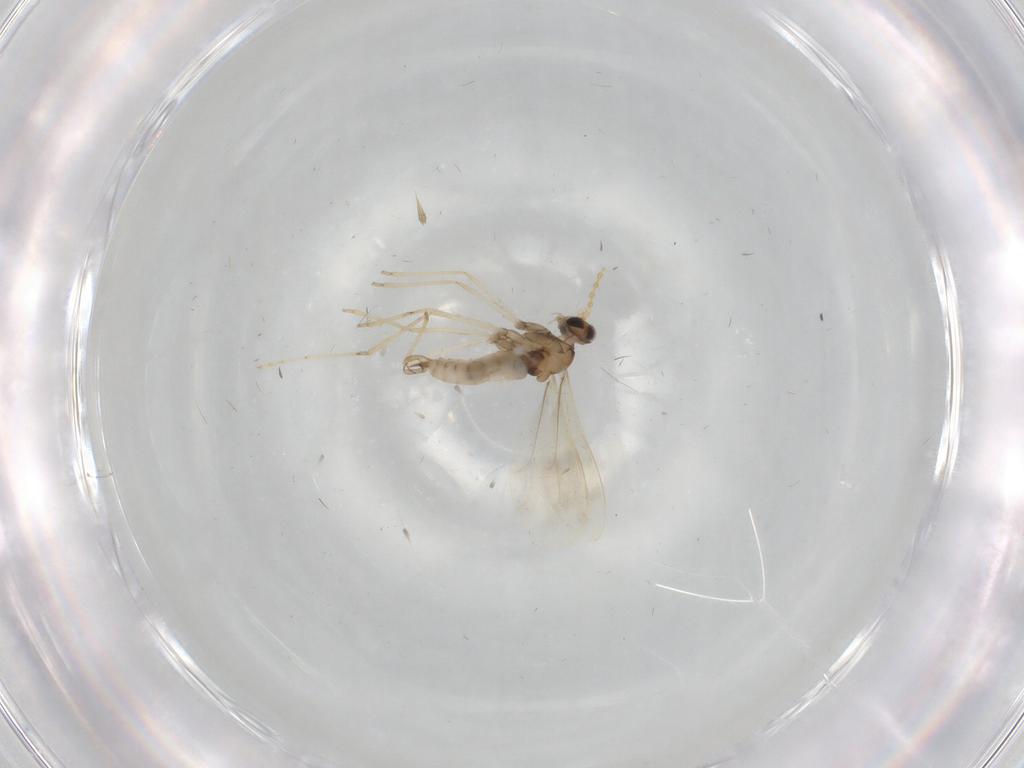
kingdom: Animalia
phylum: Arthropoda
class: Insecta
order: Diptera
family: Cecidomyiidae
